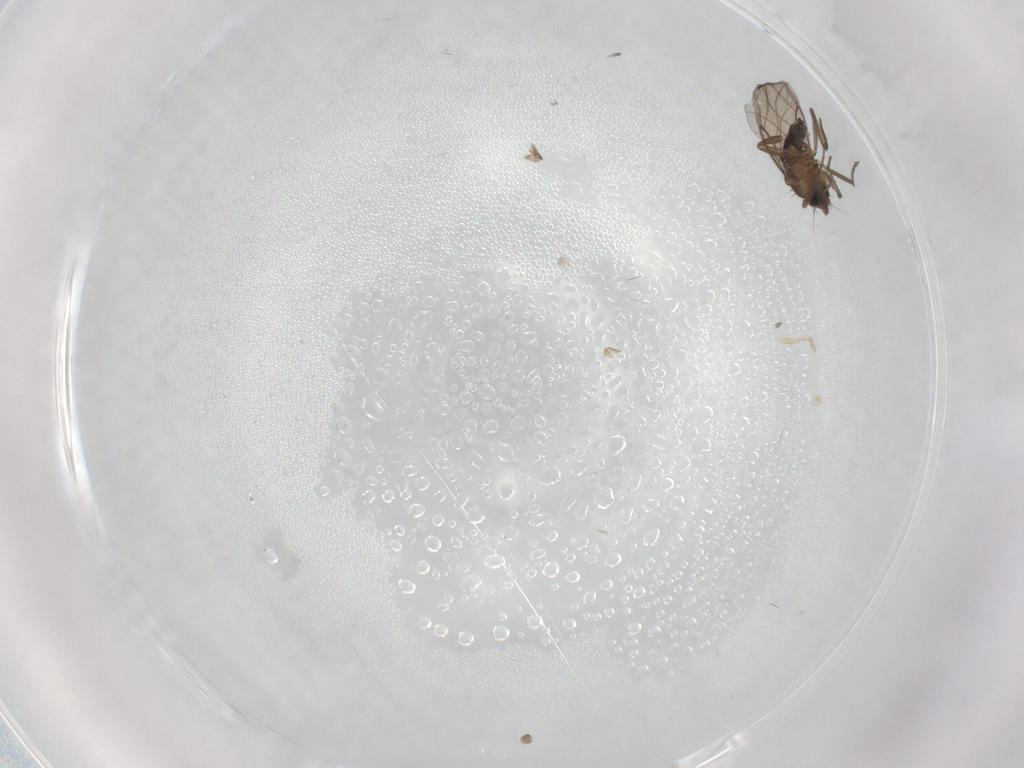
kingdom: Animalia
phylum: Arthropoda
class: Insecta
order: Diptera
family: Phoridae
